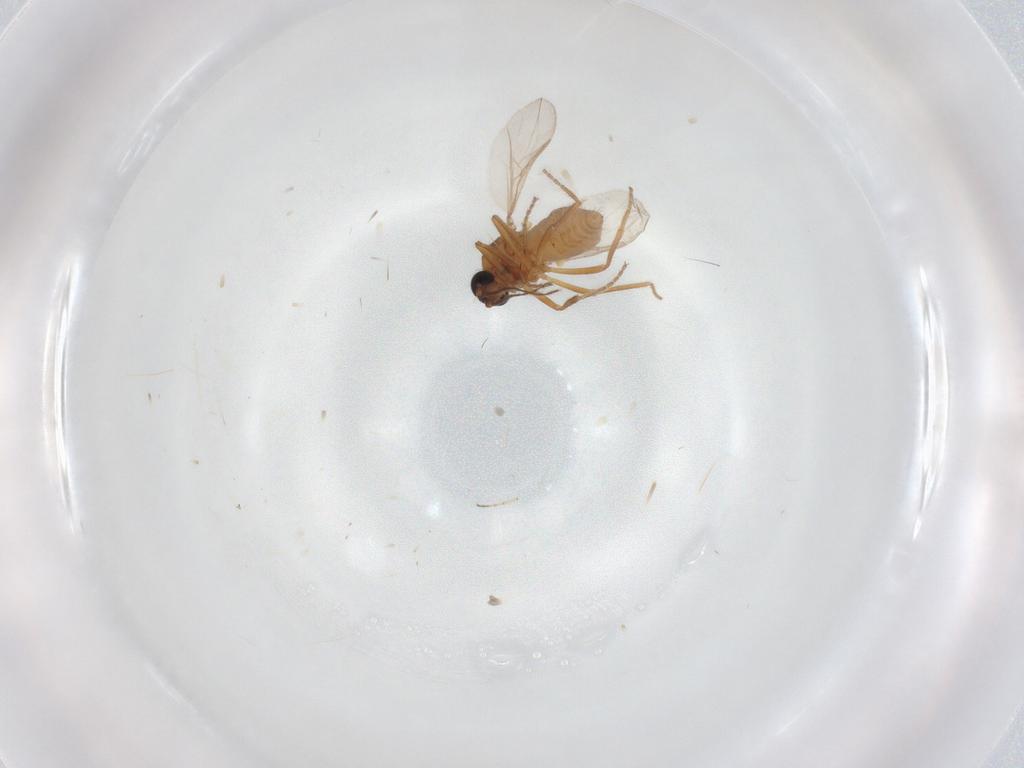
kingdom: Animalia
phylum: Arthropoda
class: Insecta
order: Diptera
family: Ceratopogonidae
